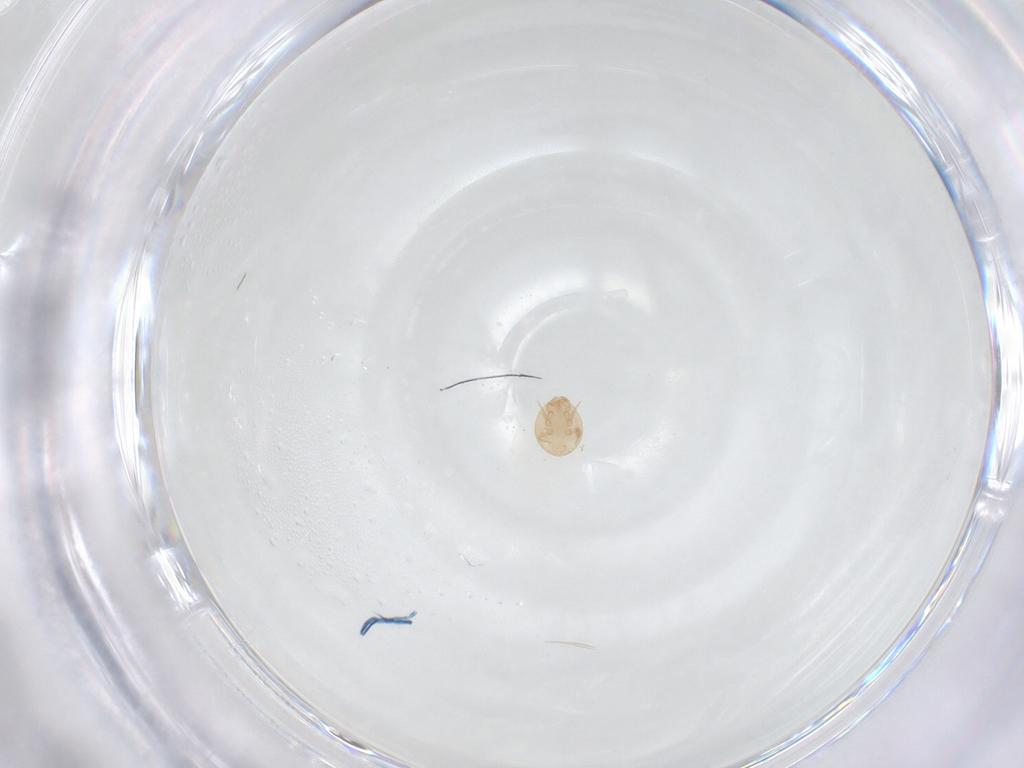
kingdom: Animalia
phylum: Arthropoda
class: Arachnida
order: Mesostigmata
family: Trematuridae
